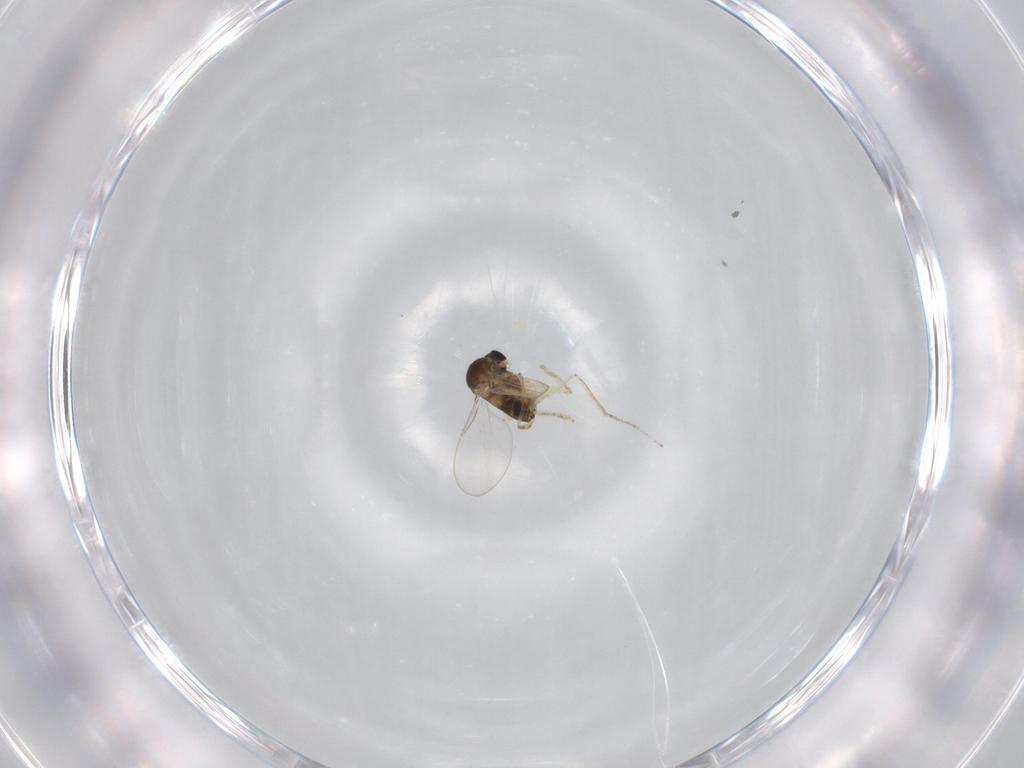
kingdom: Animalia
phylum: Arthropoda
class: Insecta
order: Diptera
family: Cecidomyiidae
